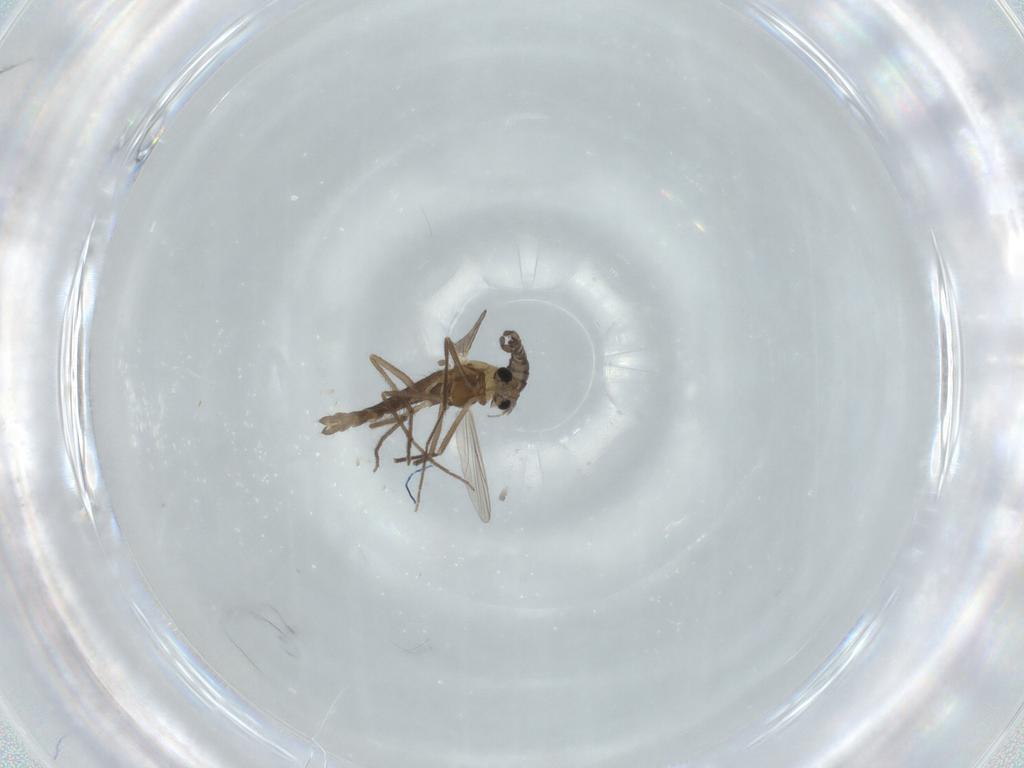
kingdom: Animalia
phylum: Arthropoda
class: Insecta
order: Diptera
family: Sciaridae
